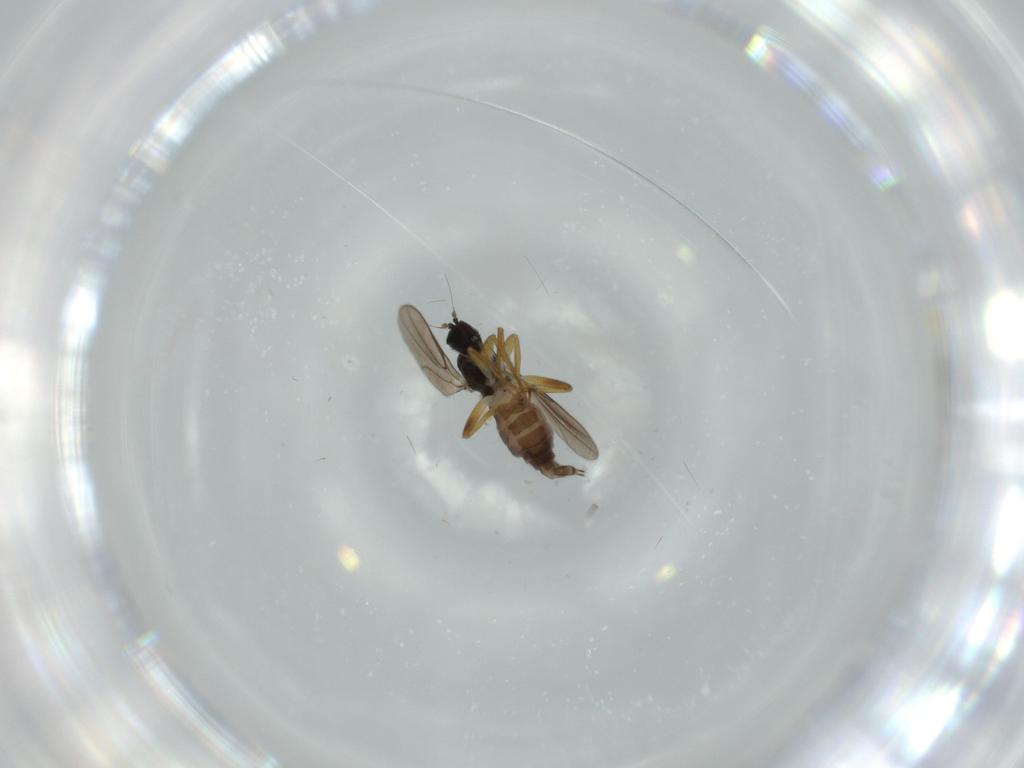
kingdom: Animalia
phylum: Arthropoda
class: Insecta
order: Diptera
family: Hybotidae
